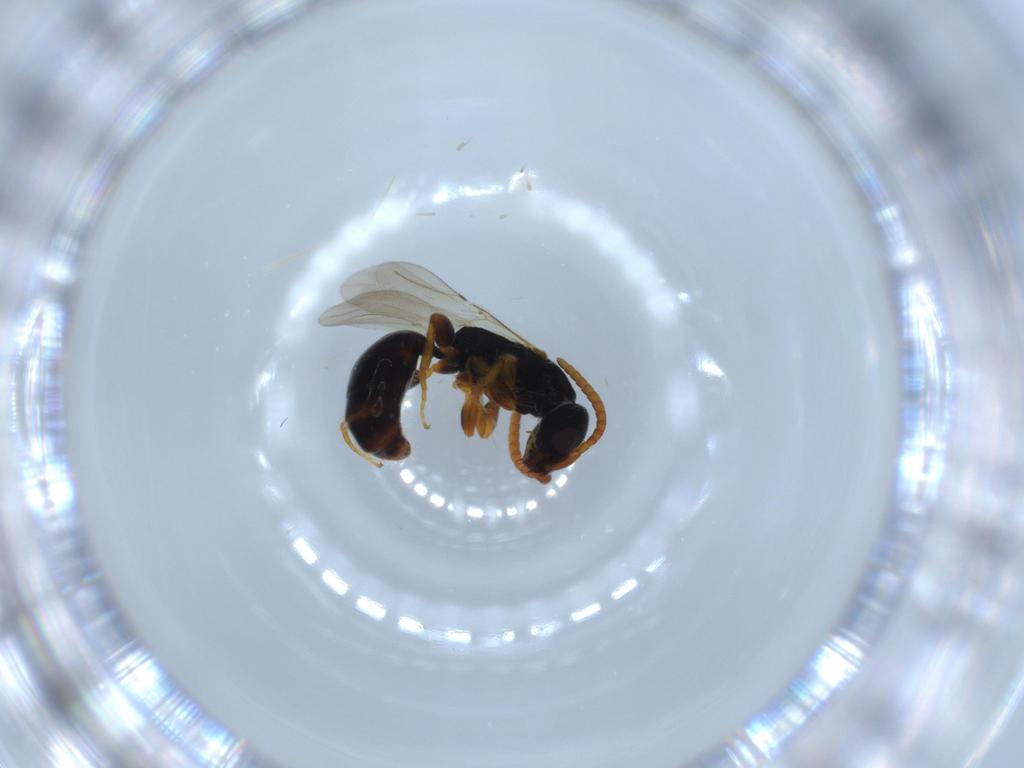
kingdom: Animalia
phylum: Arthropoda
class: Insecta
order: Hymenoptera
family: Bethylidae
